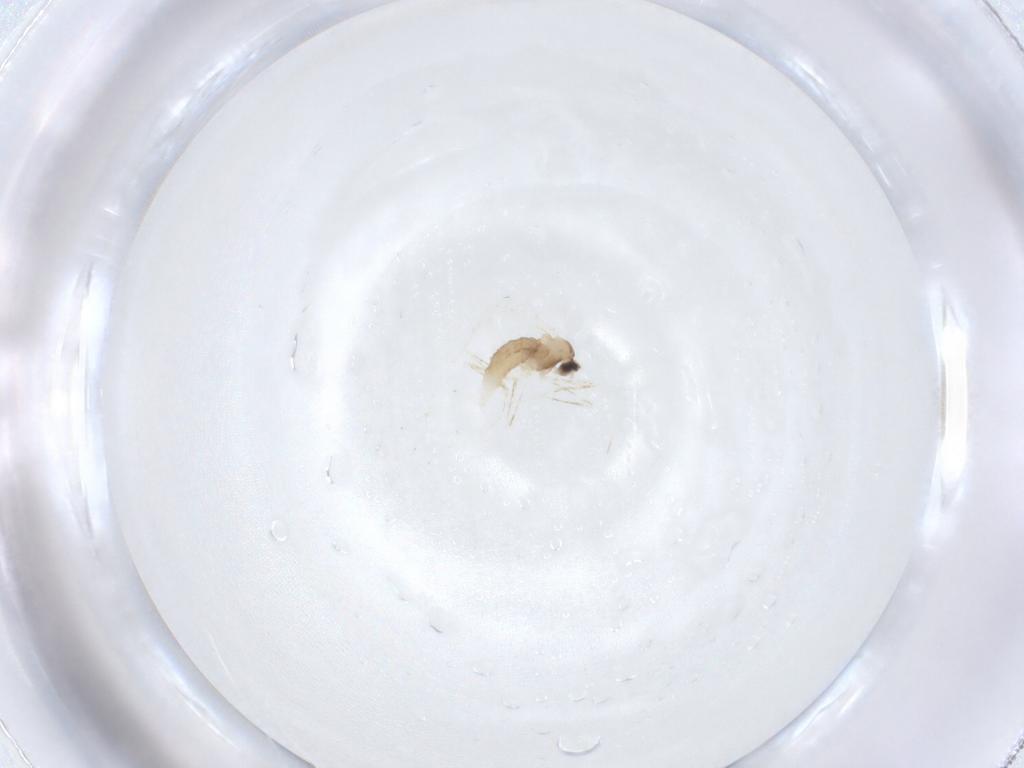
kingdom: Animalia
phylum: Arthropoda
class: Insecta
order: Diptera
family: Cecidomyiidae
